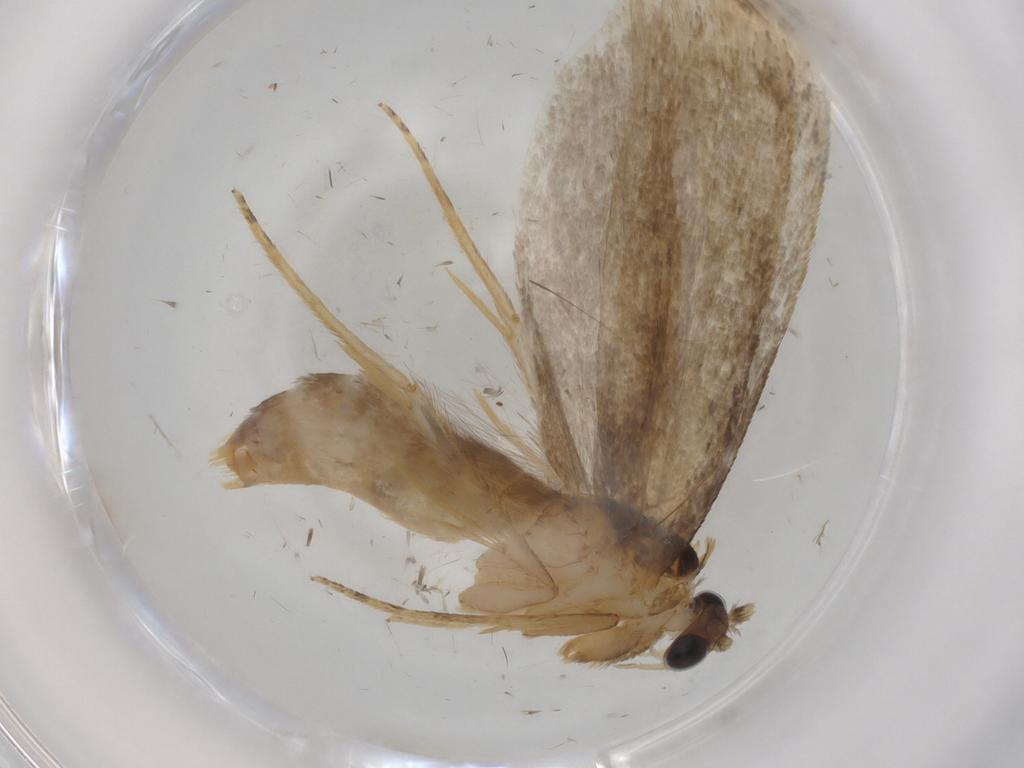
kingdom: Animalia
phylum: Arthropoda
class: Insecta
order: Lepidoptera
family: Tineidae
